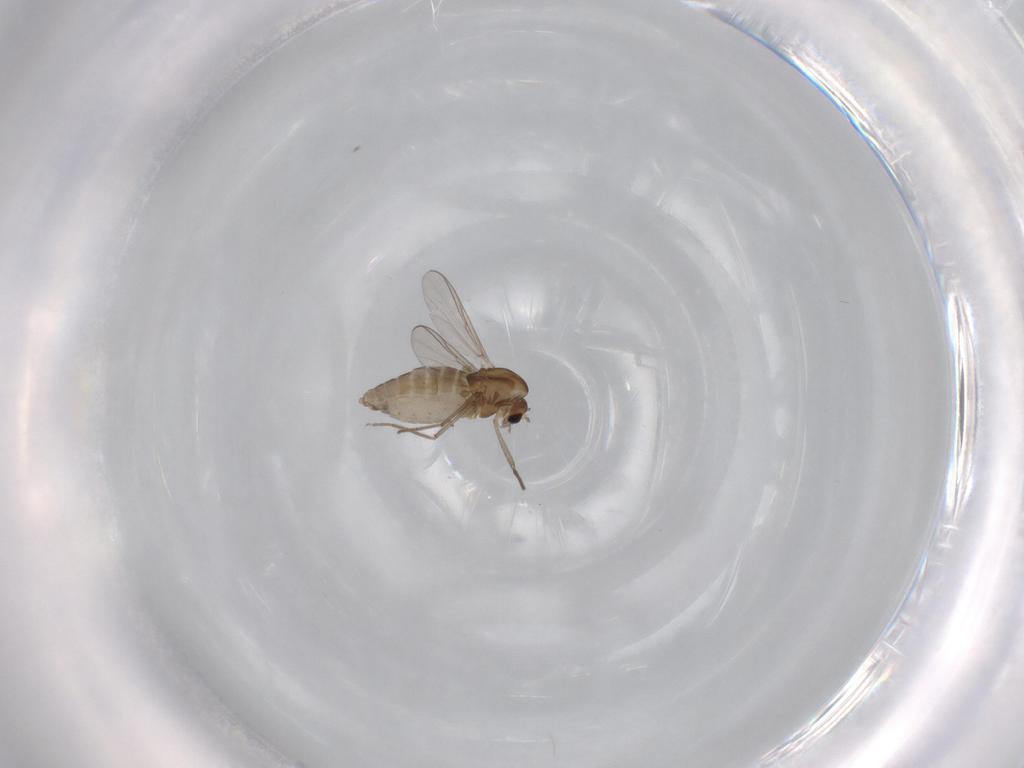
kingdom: Animalia
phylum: Arthropoda
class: Insecta
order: Diptera
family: Chironomidae
